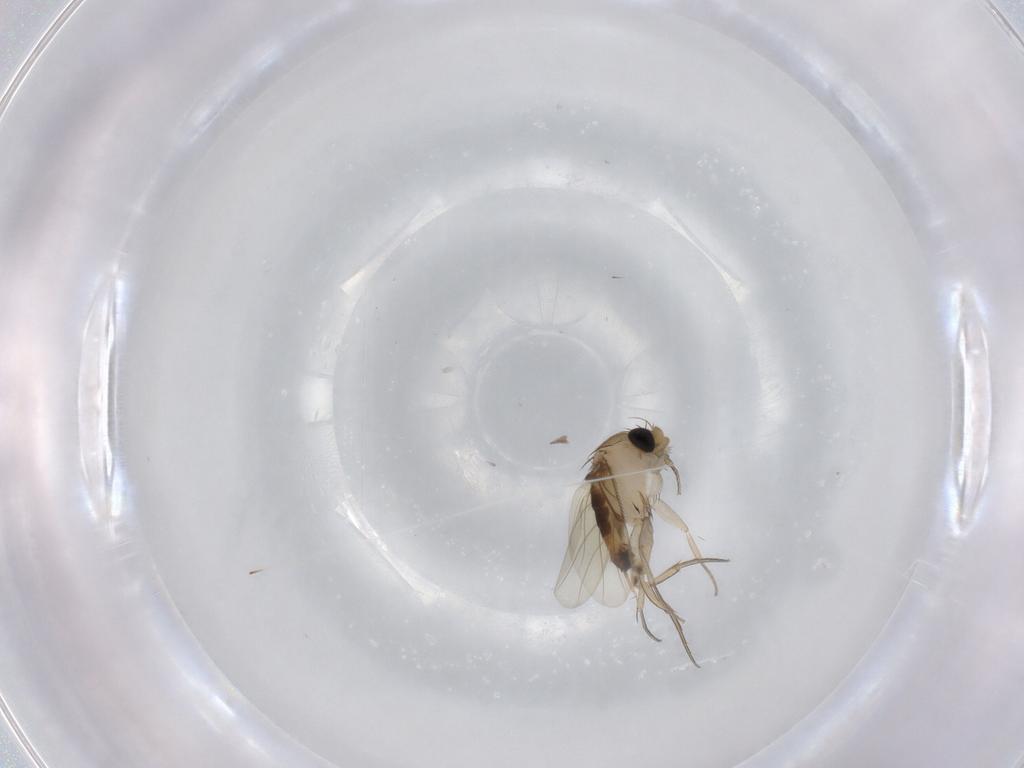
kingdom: Animalia
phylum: Arthropoda
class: Insecta
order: Diptera
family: Phoridae
